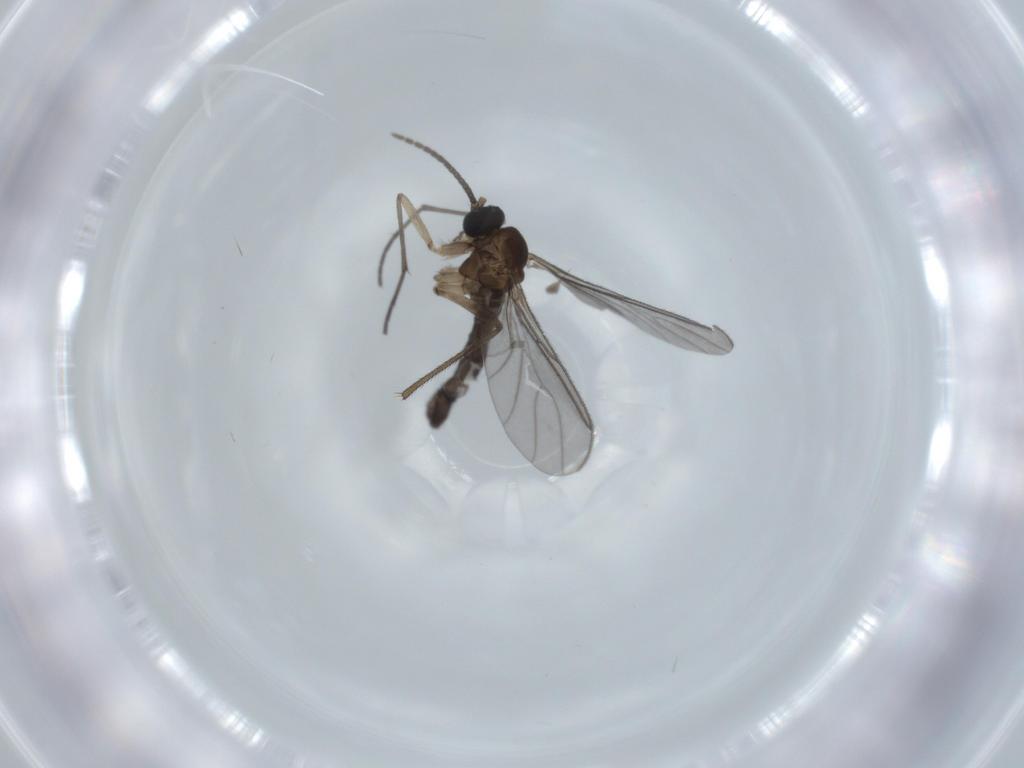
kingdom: Animalia
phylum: Arthropoda
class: Insecta
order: Diptera
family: Sciaridae
